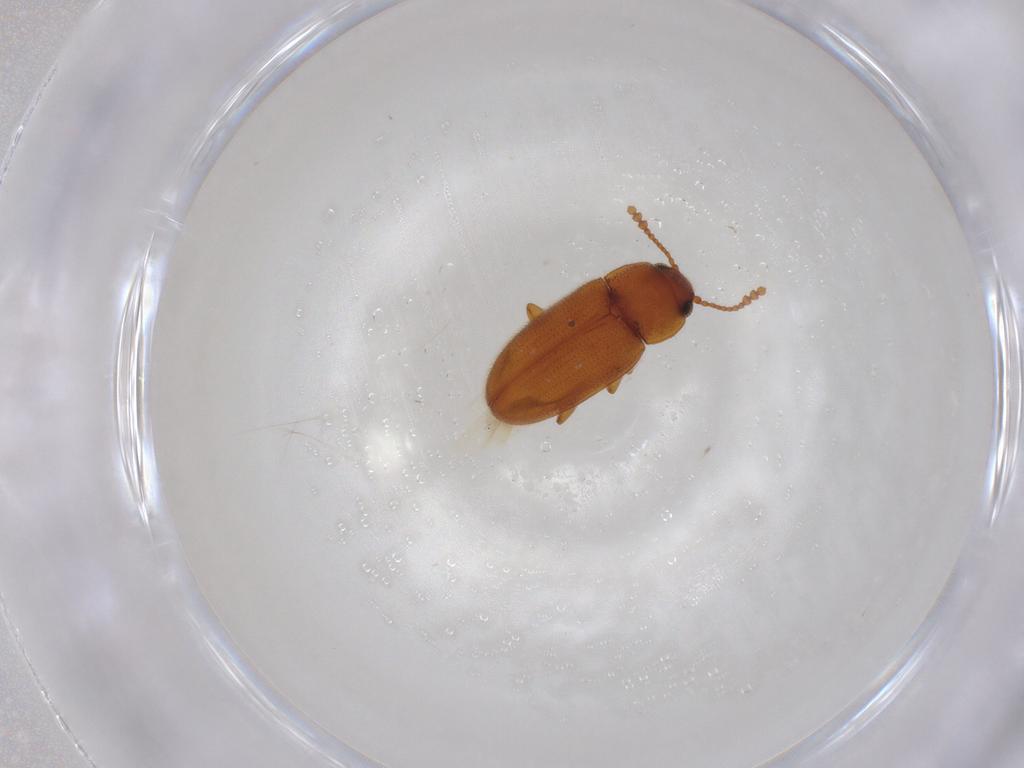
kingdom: Animalia
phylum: Arthropoda
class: Insecta
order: Coleoptera
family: Erotylidae
